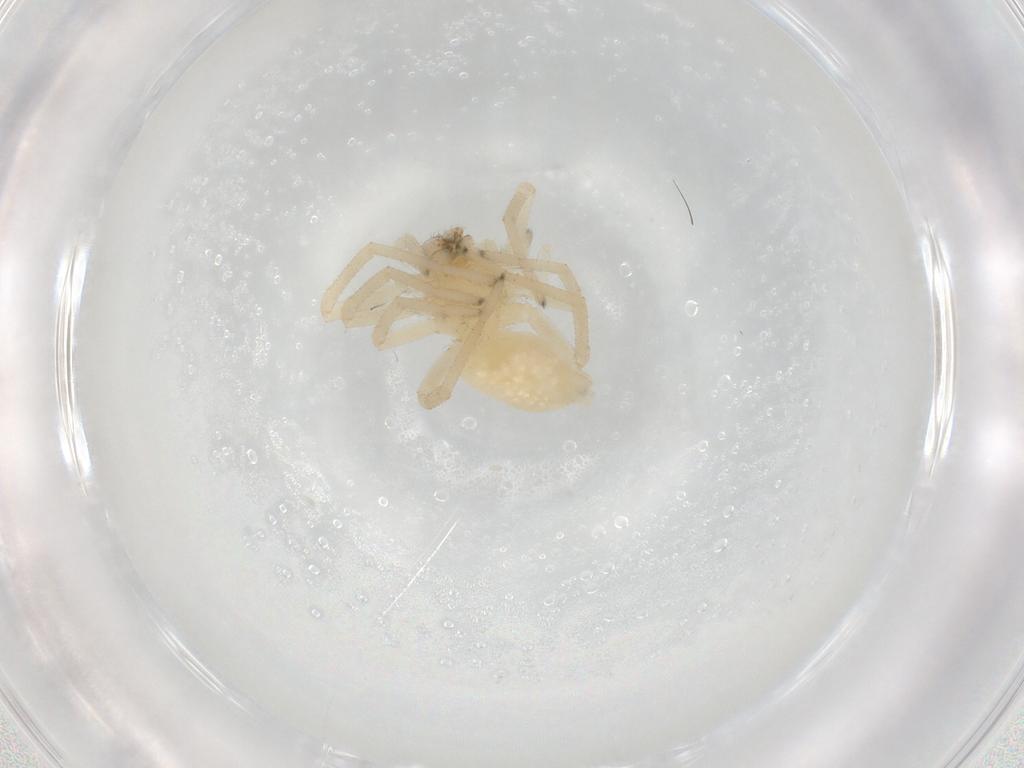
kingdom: Animalia
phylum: Arthropoda
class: Arachnida
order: Araneae
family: Cheiracanthiidae
